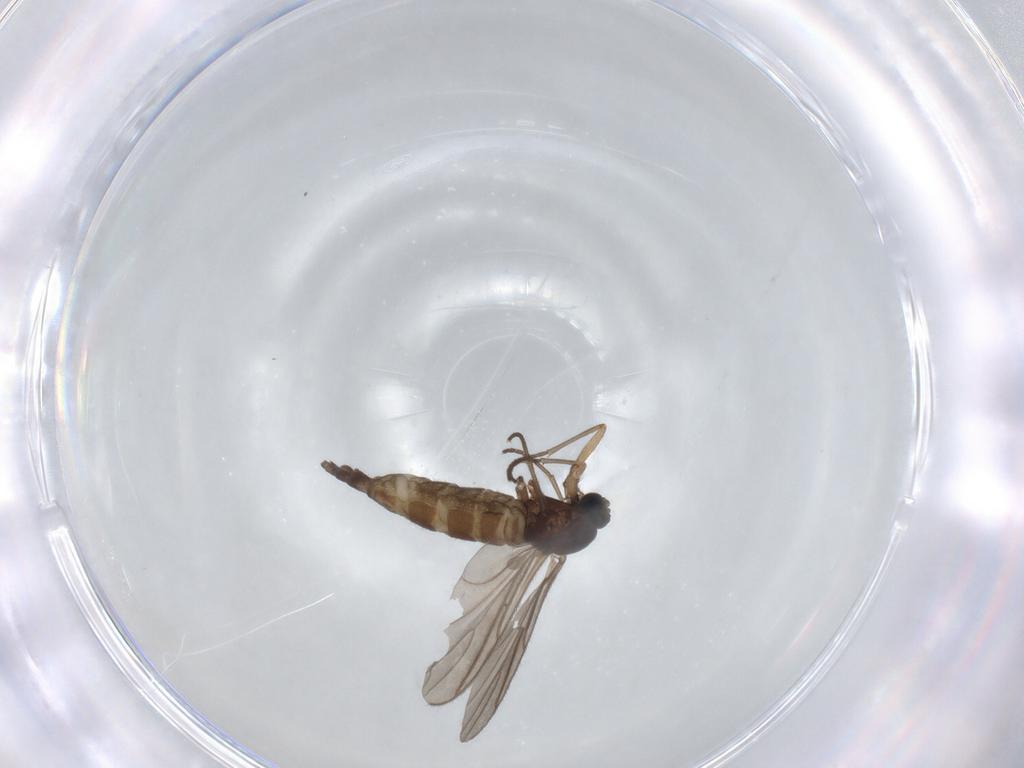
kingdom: Animalia
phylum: Arthropoda
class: Insecta
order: Diptera
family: Sciaridae
